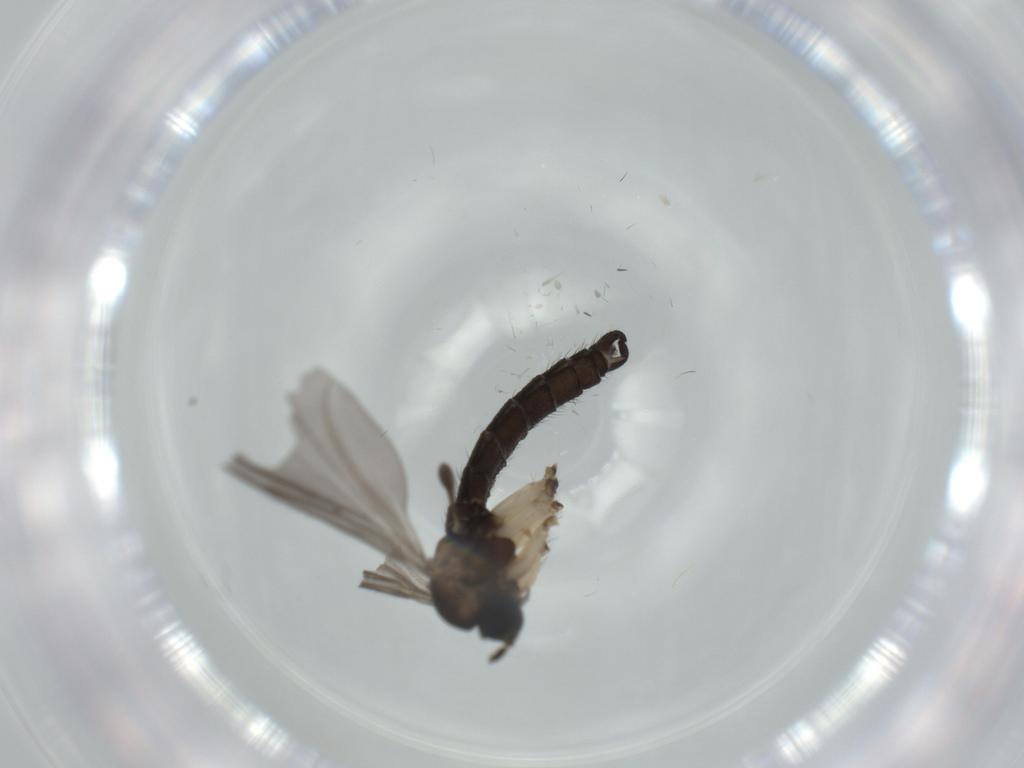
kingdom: Animalia
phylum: Arthropoda
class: Insecta
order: Diptera
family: Sciaridae
